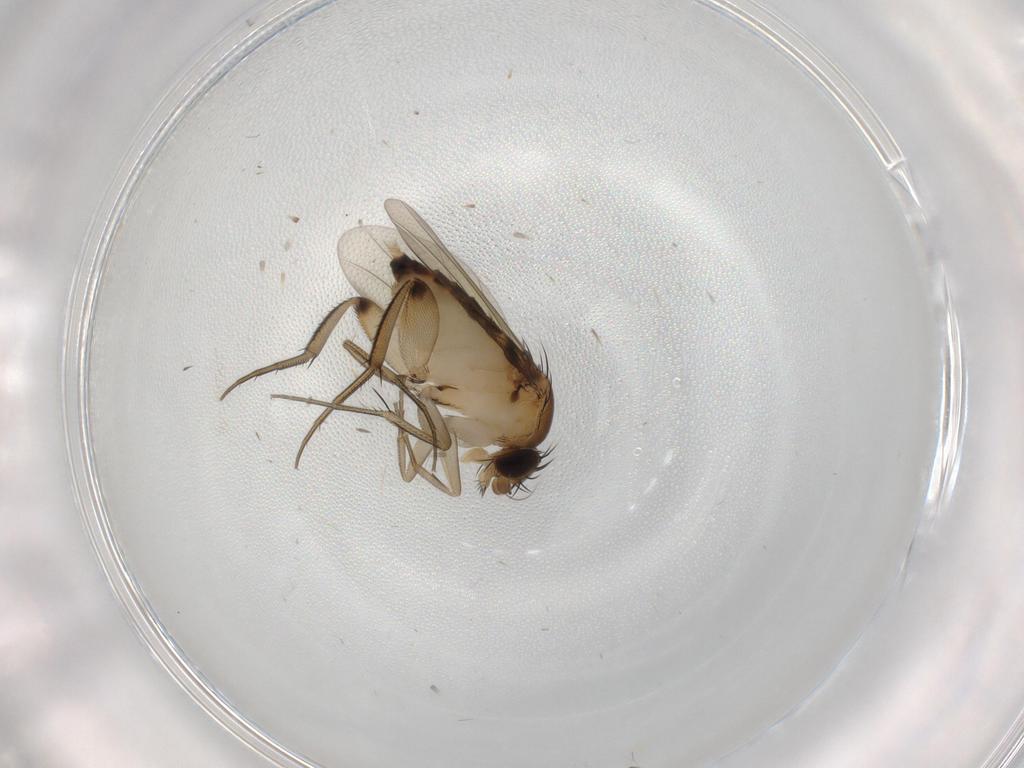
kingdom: Animalia
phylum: Arthropoda
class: Insecta
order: Diptera
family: Phoridae
